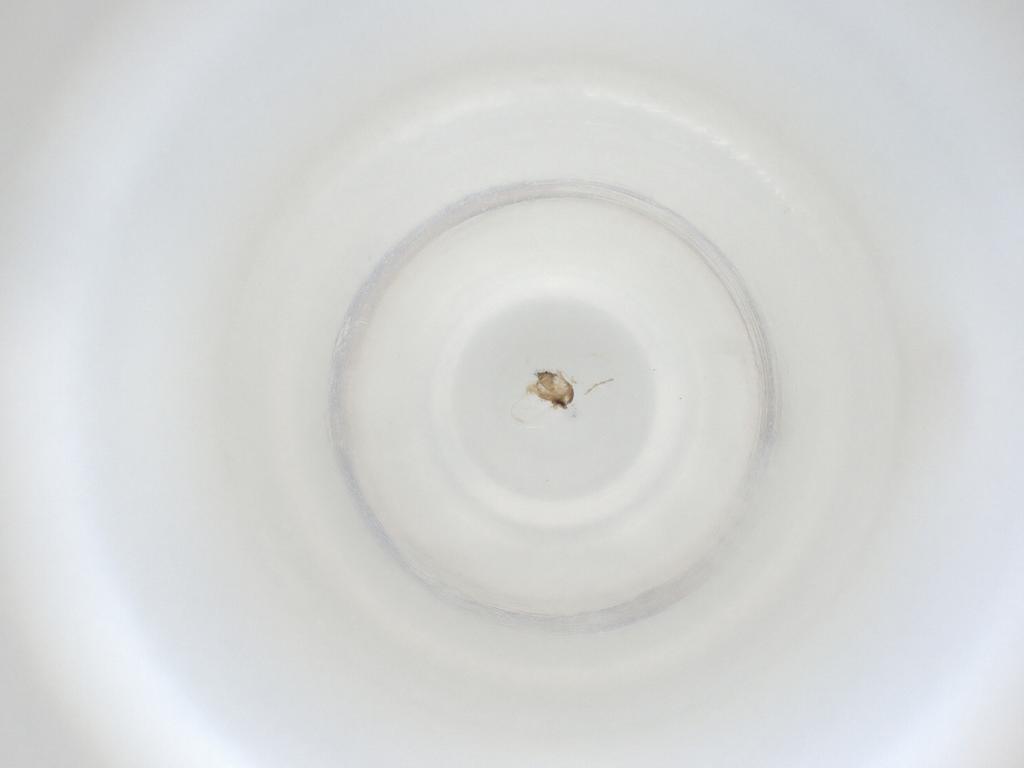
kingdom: Animalia
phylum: Arthropoda
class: Insecta
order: Diptera
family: Cecidomyiidae
